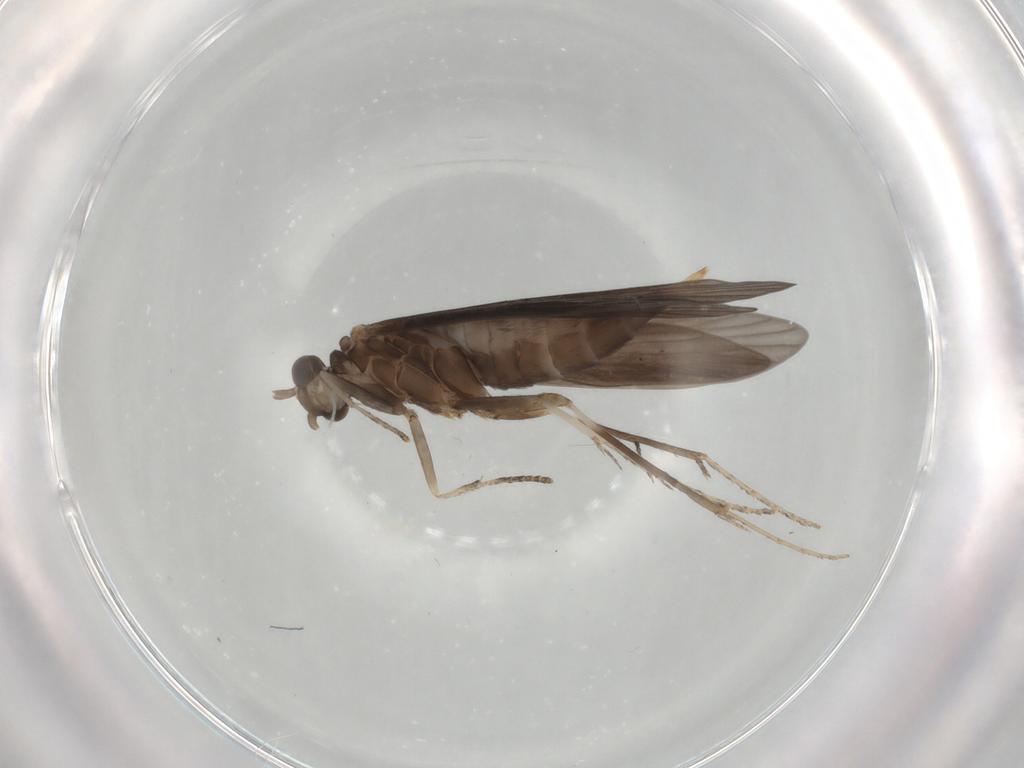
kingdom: Animalia
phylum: Arthropoda
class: Insecta
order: Trichoptera
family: Xiphocentronidae
